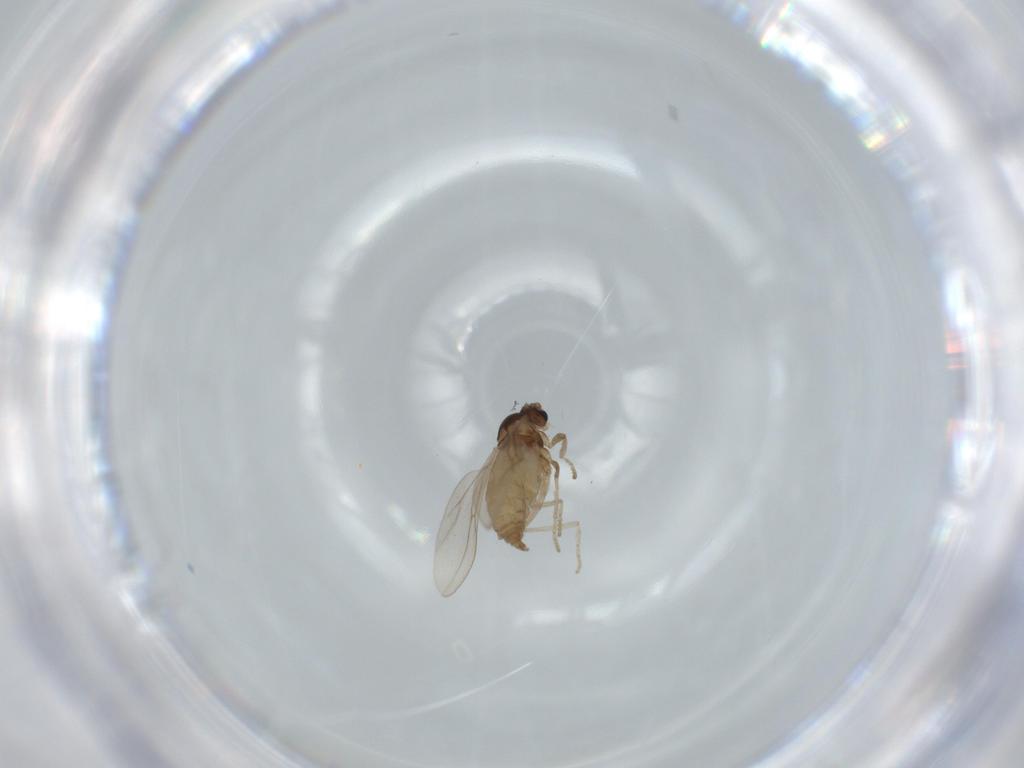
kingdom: Animalia
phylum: Arthropoda
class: Insecta
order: Diptera
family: Cecidomyiidae
